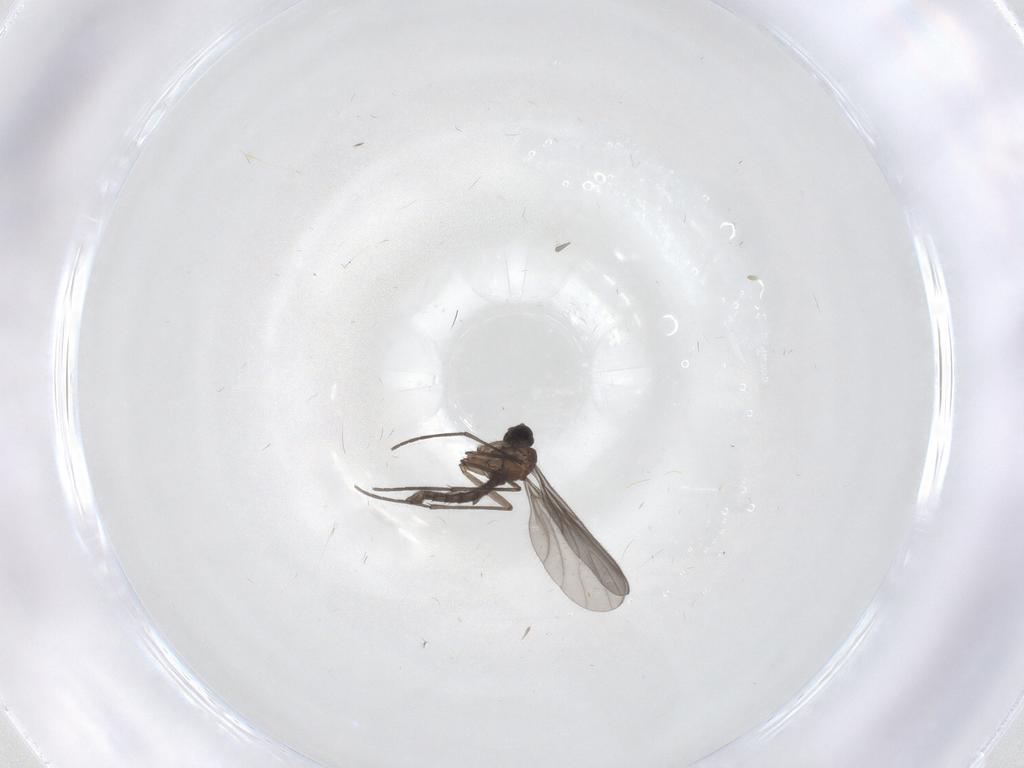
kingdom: Animalia
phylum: Arthropoda
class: Insecta
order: Diptera
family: Sciaridae
